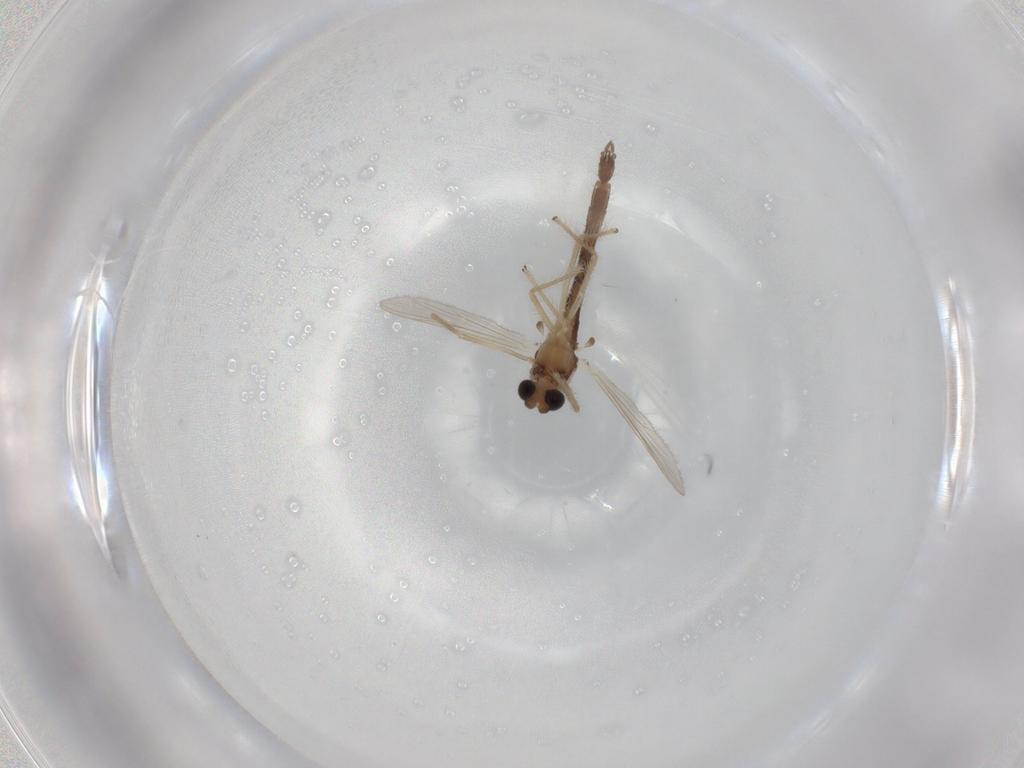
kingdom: Animalia
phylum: Arthropoda
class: Insecta
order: Diptera
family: Chironomidae
